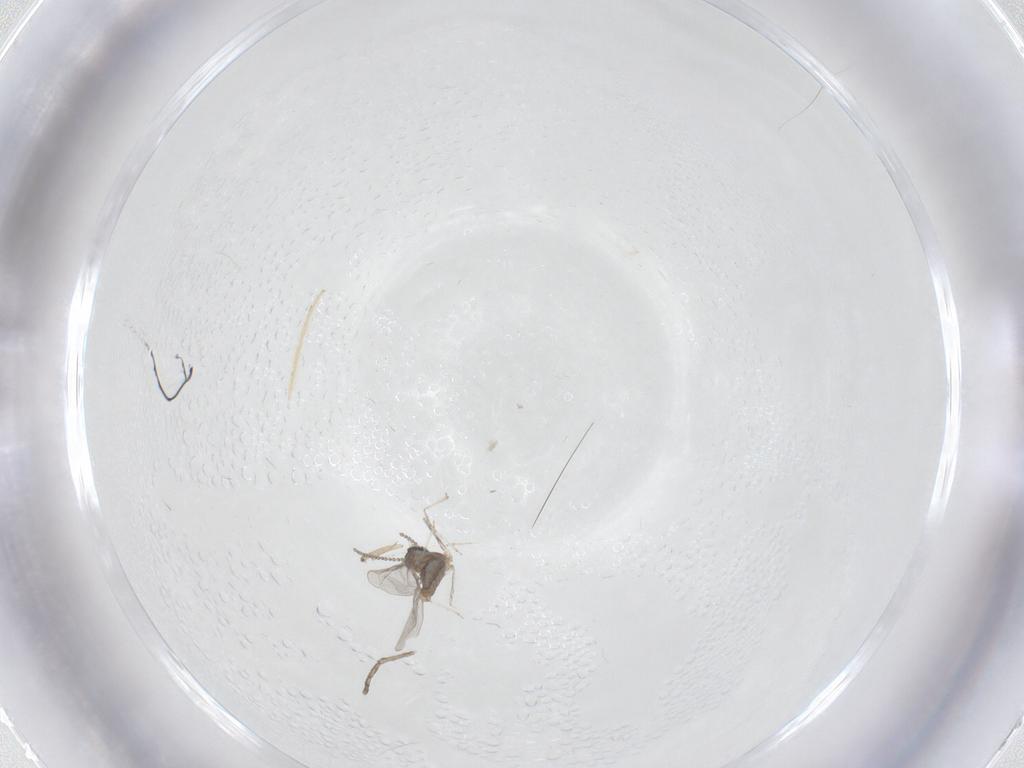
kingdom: Animalia
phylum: Arthropoda
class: Insecta
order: Diptera
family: Cecidomyiidae
